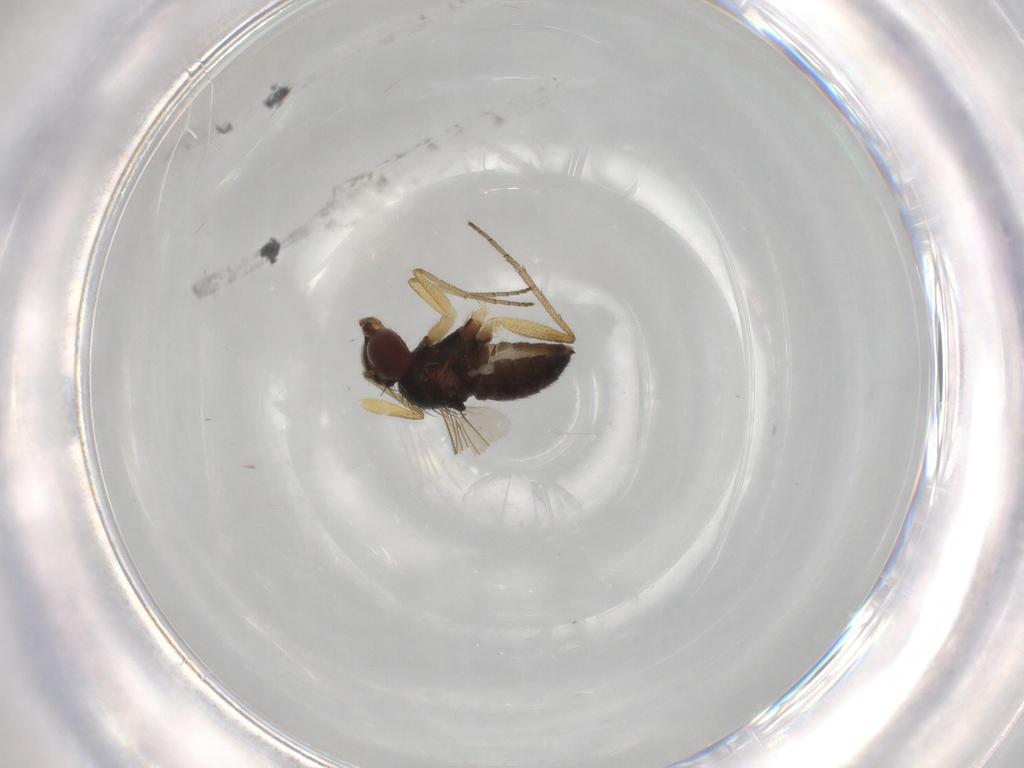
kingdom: Animalia
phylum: Arthropoda
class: Insecta
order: Diptera
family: Dolichopodidae
